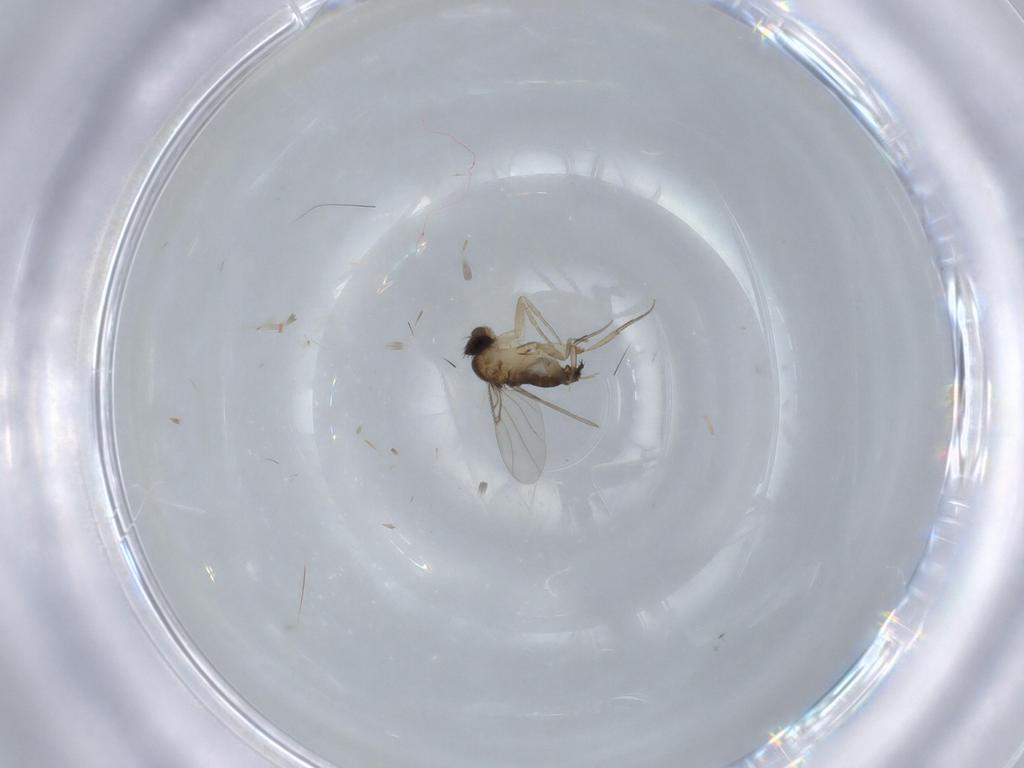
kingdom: Animalia
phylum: Arthropoda
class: Insecta
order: Diptera
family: Phoridae
